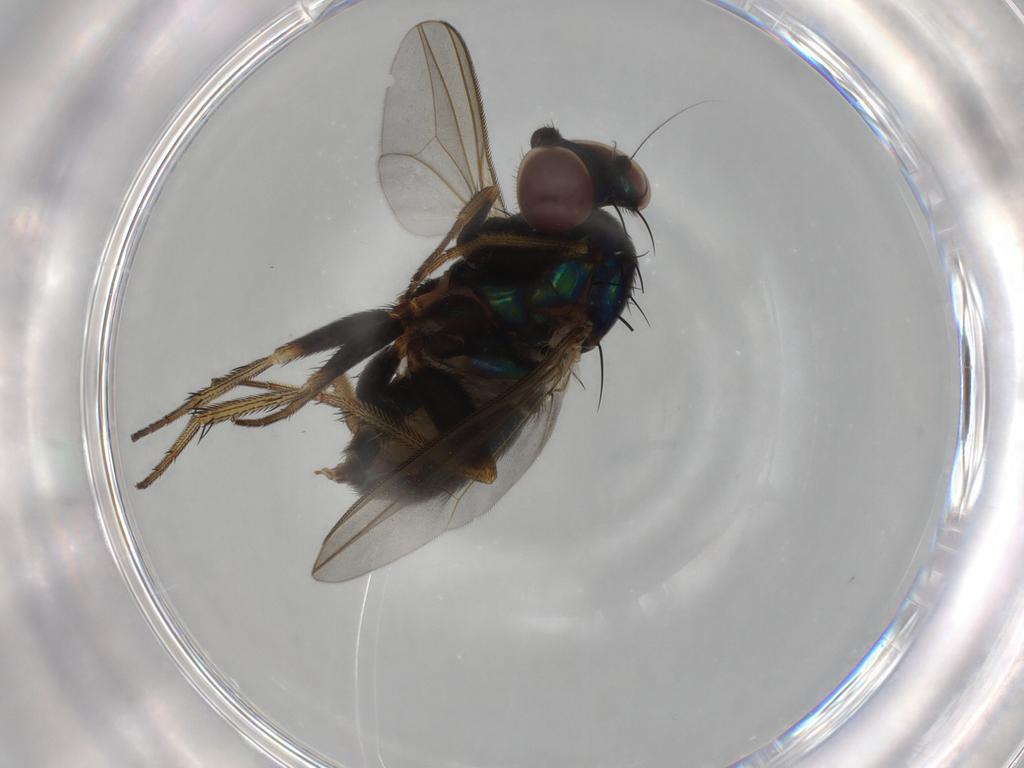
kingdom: Animalia
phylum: Arthropoda
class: Insecta
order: Diptera
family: Dolichopodidae
